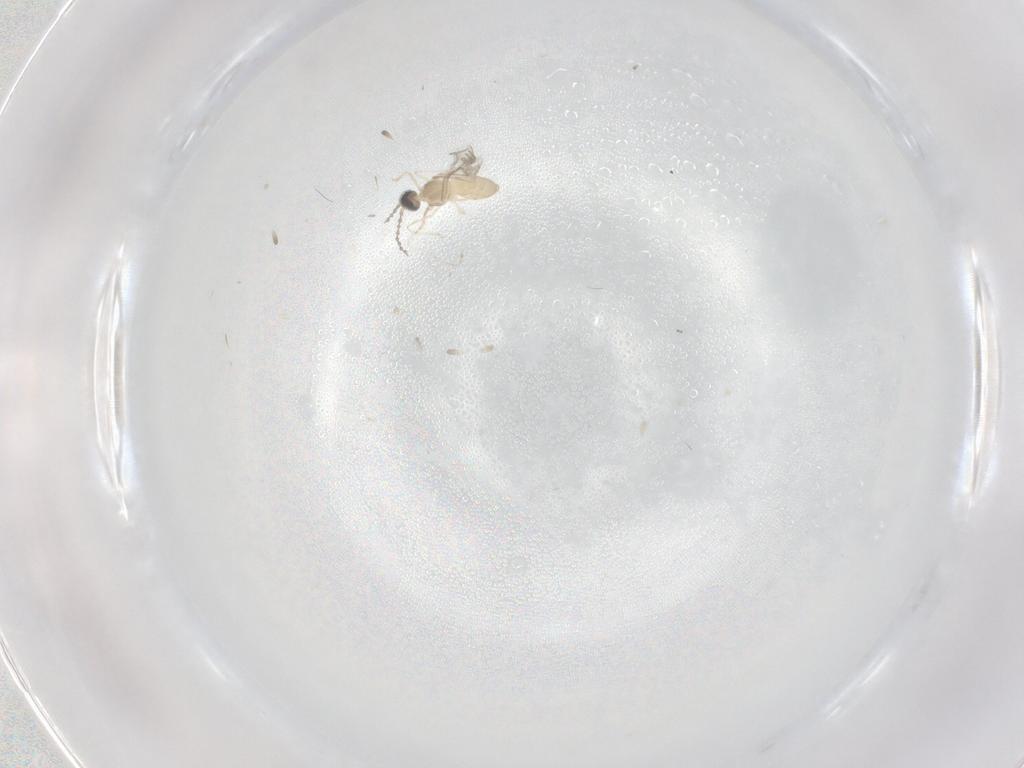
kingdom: Animalia
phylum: Arthropoda
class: Insecta
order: Diptera
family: Cecidomyiidae
